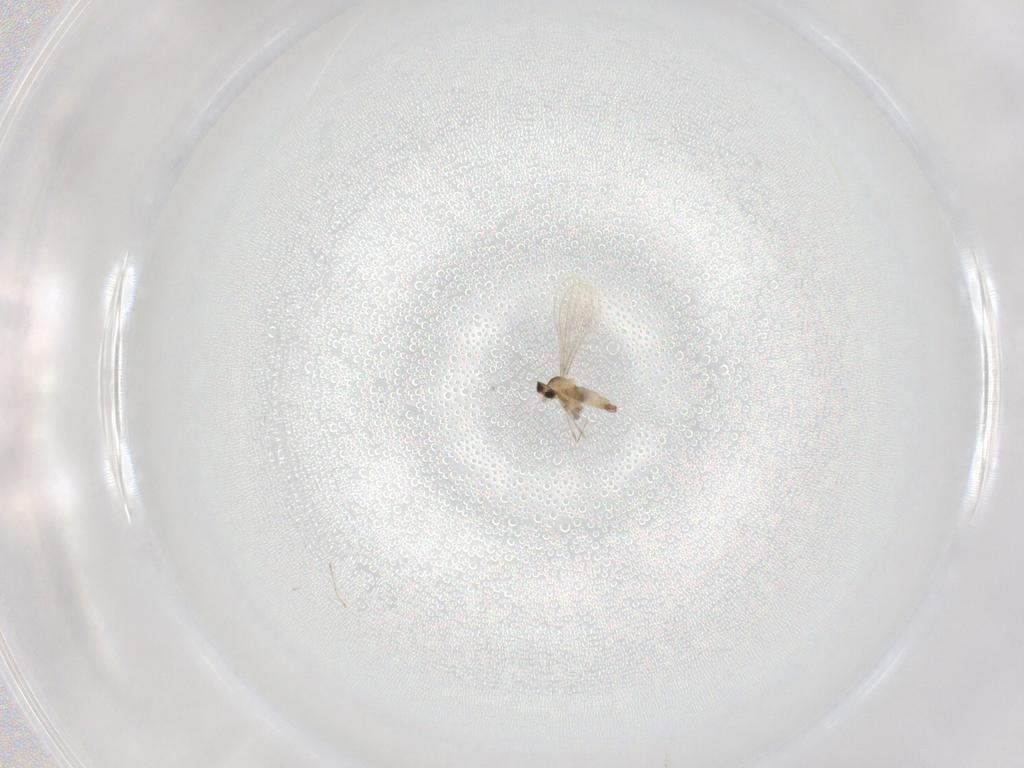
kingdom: Animalia
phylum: Arthropoda
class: Insecta
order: Diptera
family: Cecidomyiidae
